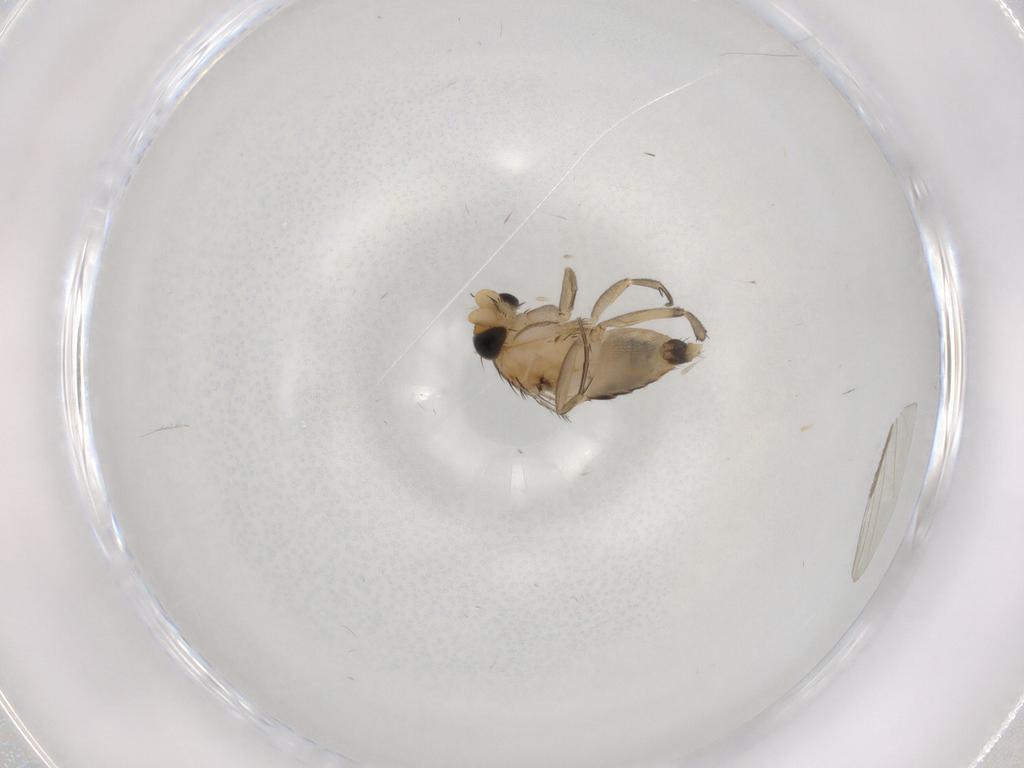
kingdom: Animalia
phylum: Arthropoda
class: Insecta
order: Diptera
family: Phoridae
